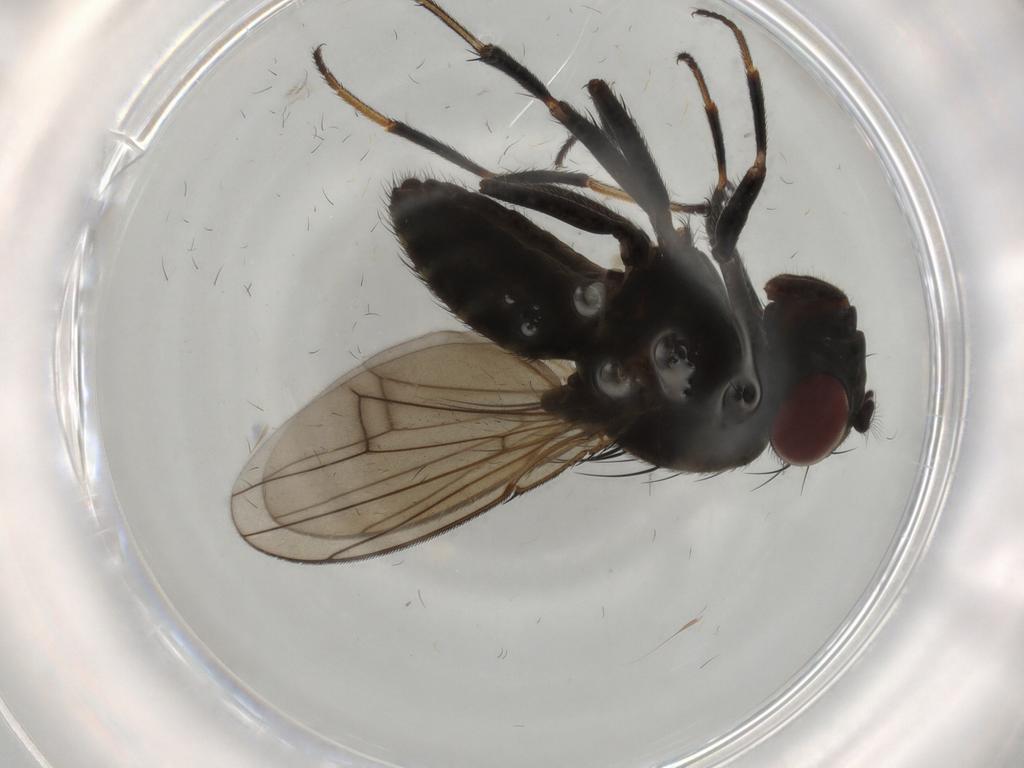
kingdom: Animalia
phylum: Arthropoda
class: Insecta
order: Diptera
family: Ephydridae
